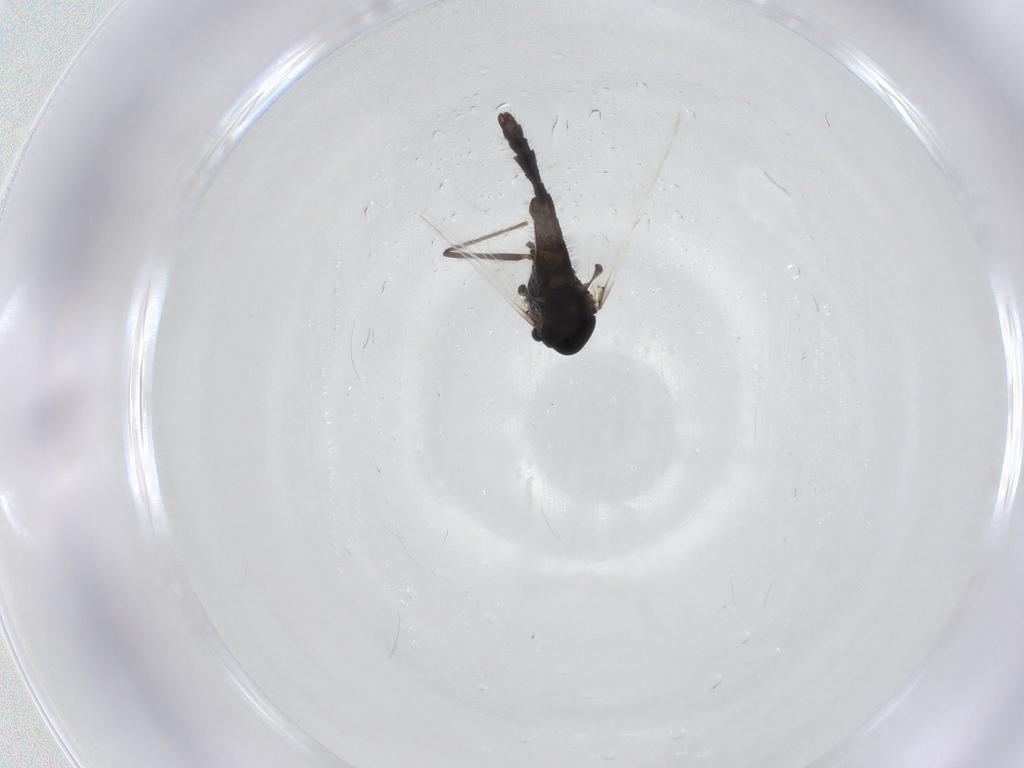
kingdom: Animalia
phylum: Arthropoda
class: Insecta
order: Diptera
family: Chloropidae
